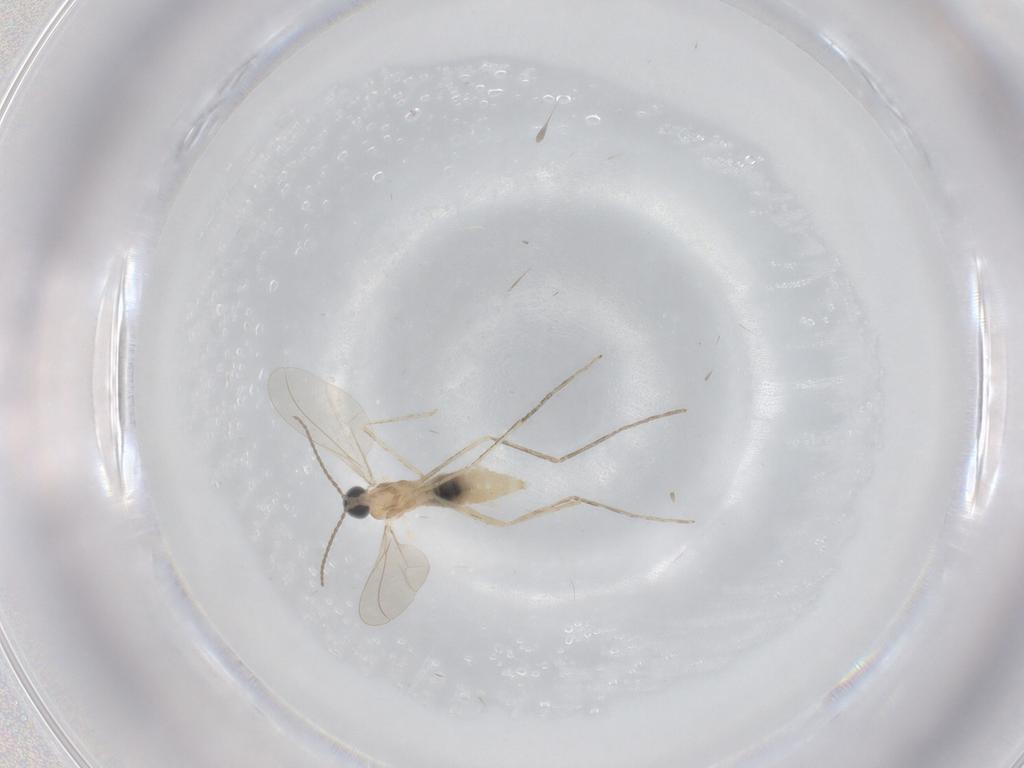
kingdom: Animalia
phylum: Arthropoda
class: Insecta
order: Diptera
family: Cecidomyiidae
